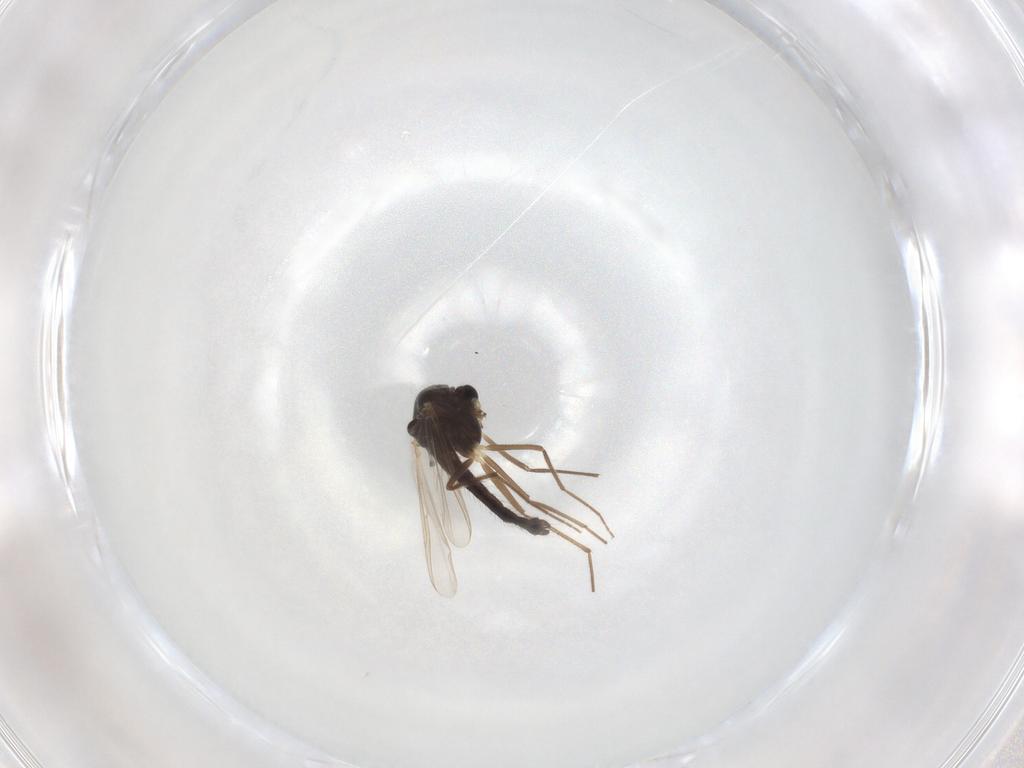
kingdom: Animalia
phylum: Arthropoda
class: Insecta
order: Diptera
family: Chironomidae
